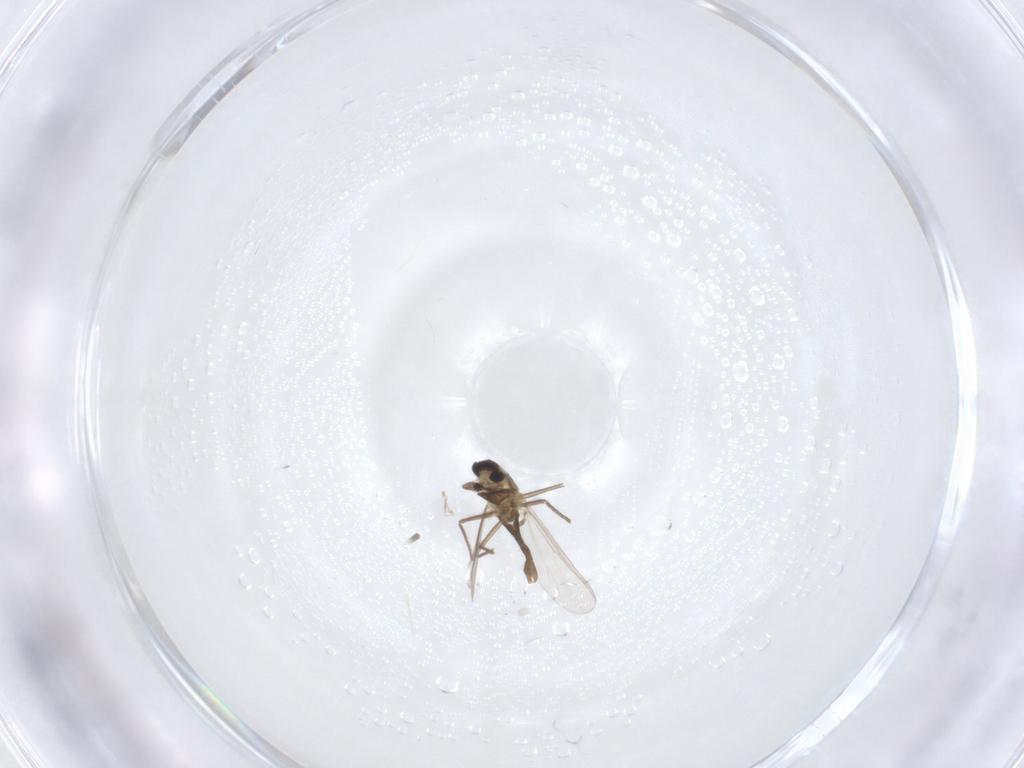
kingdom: Animalia
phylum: Arthropoda
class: Insecta
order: Diptera
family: Chironomidae
